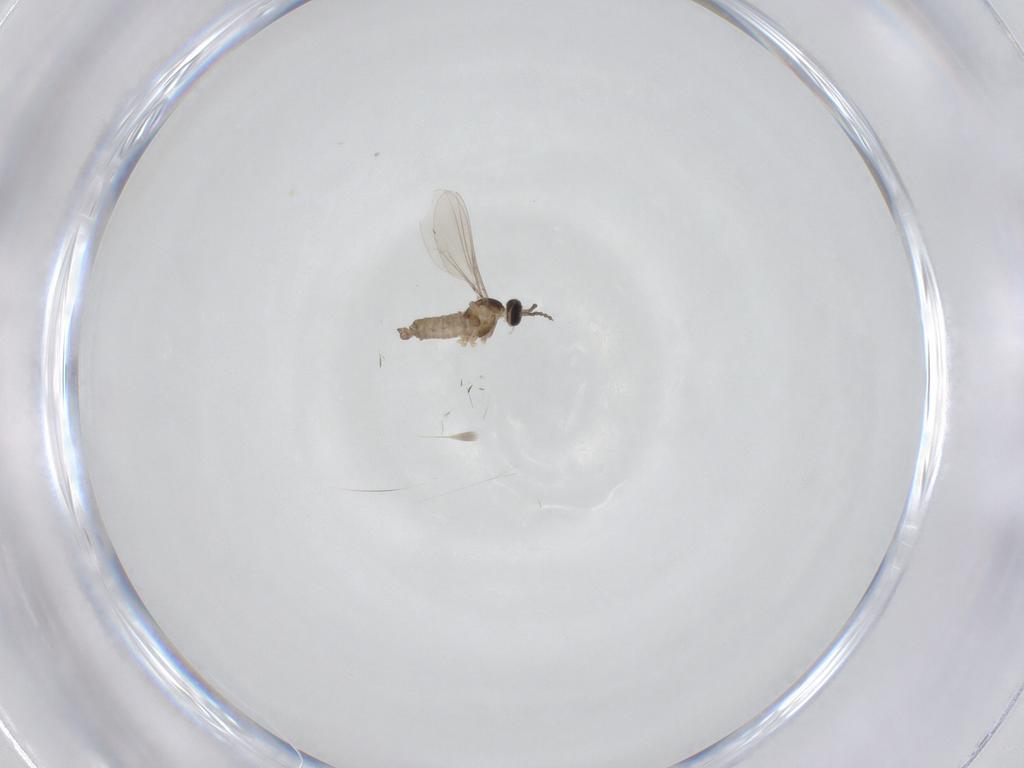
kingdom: Animalia
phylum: Arthropoda
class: Insecta
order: Diptera
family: Cecidomyiidae
